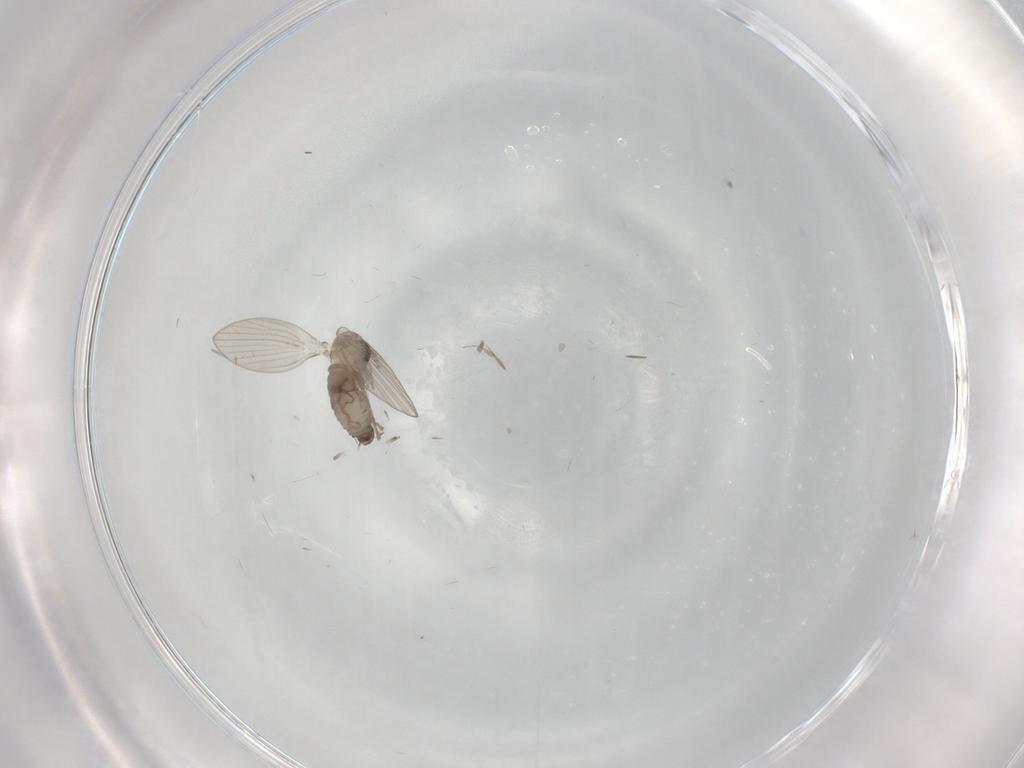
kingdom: Animalia
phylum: Arthropoda
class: Insecta
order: Diptera
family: Psychodidae
